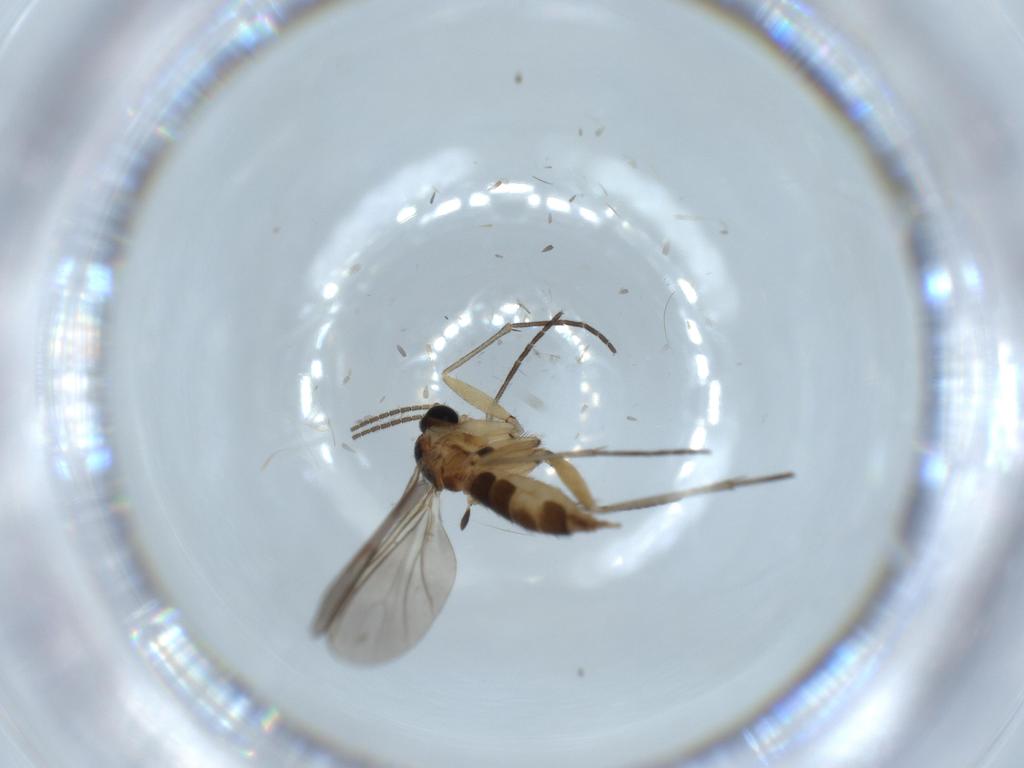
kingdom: Animalia
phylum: Arthropoda
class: Insecta
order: Diptera
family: Sciaridae
